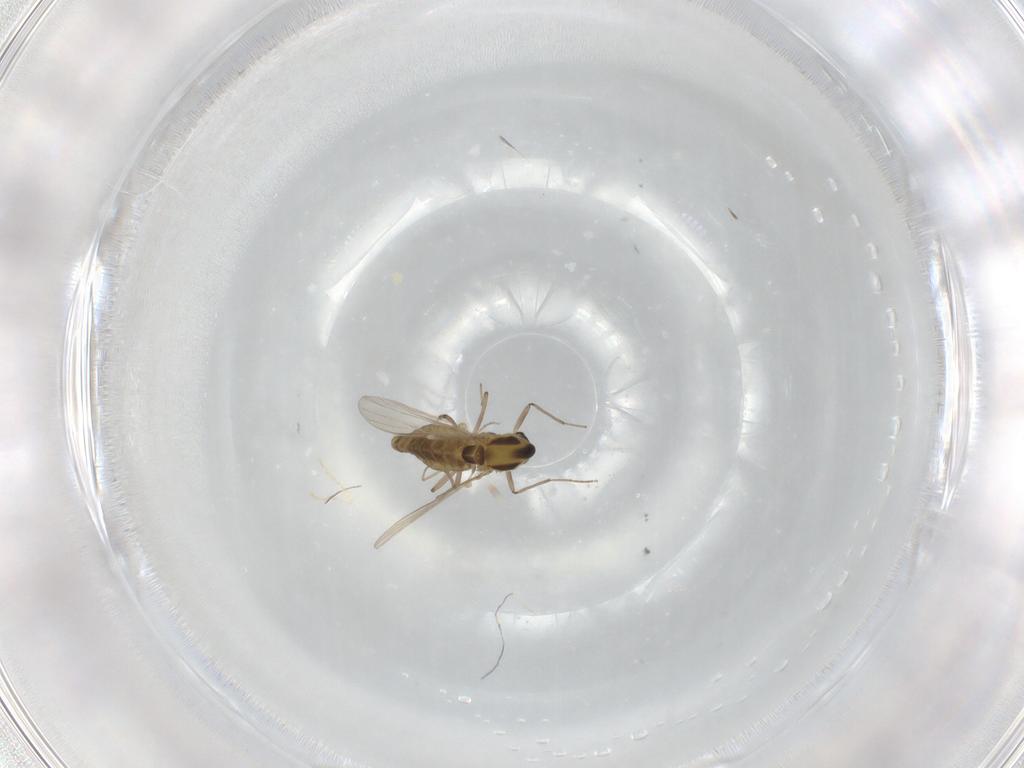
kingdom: Animalia
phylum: Arthropoda
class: Insecta
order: Diptera
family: Chironomidae
